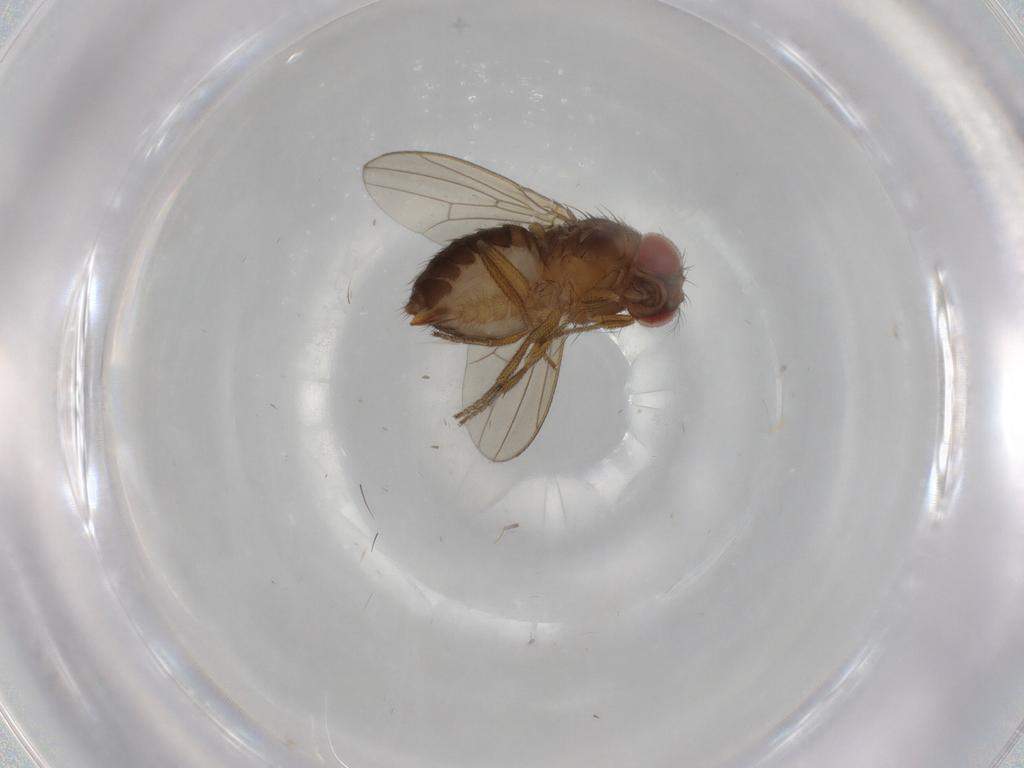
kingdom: Animalia
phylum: Arthropoda
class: Insecta
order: Diptera
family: Drosophilidae
